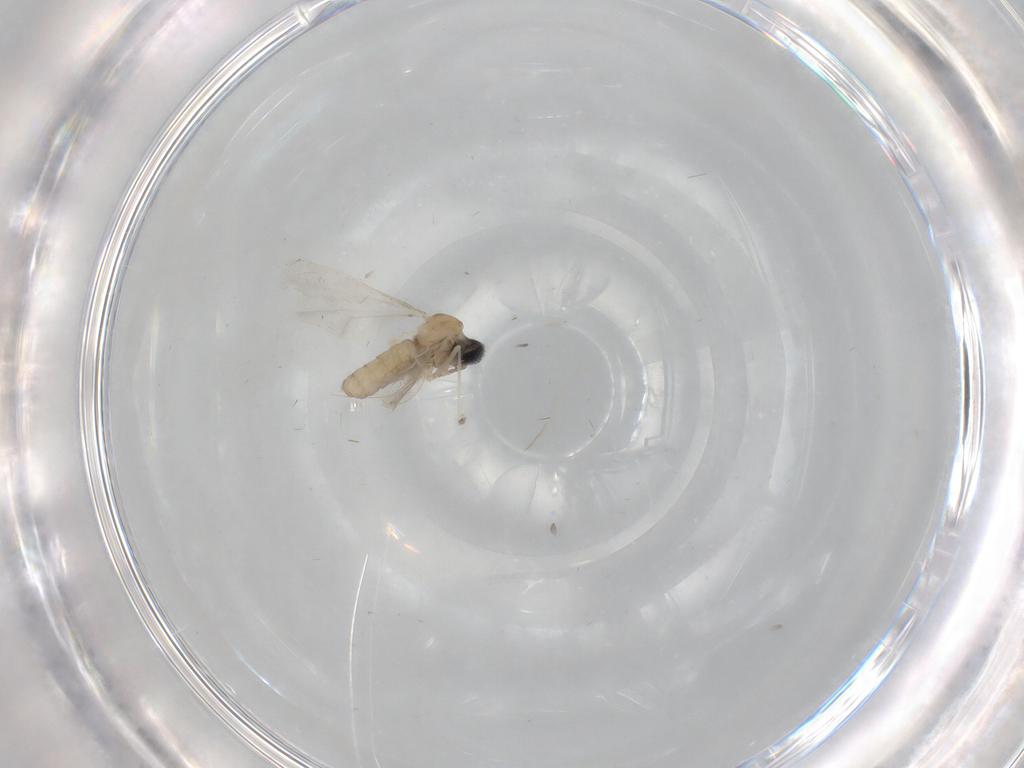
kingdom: Animalia
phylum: Arthropoda
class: Insecta
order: Diptera
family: Cecidomyiidae
